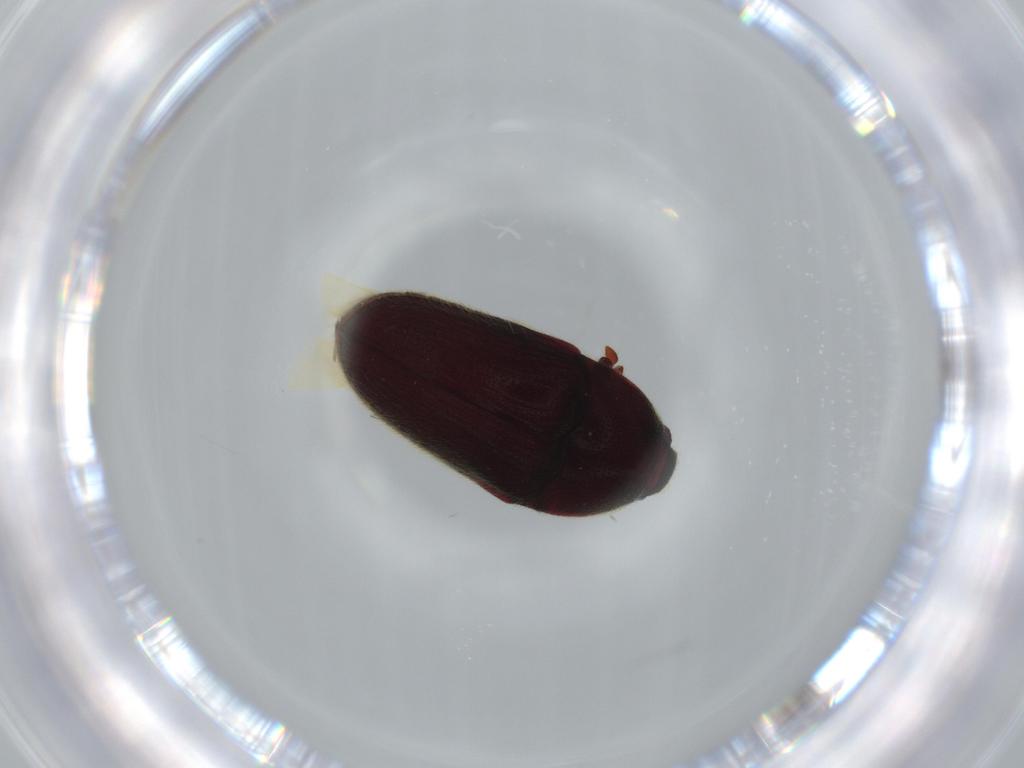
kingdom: Animalia
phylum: Arthropoda
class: Insecta
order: Coleoptera
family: Throscidae
